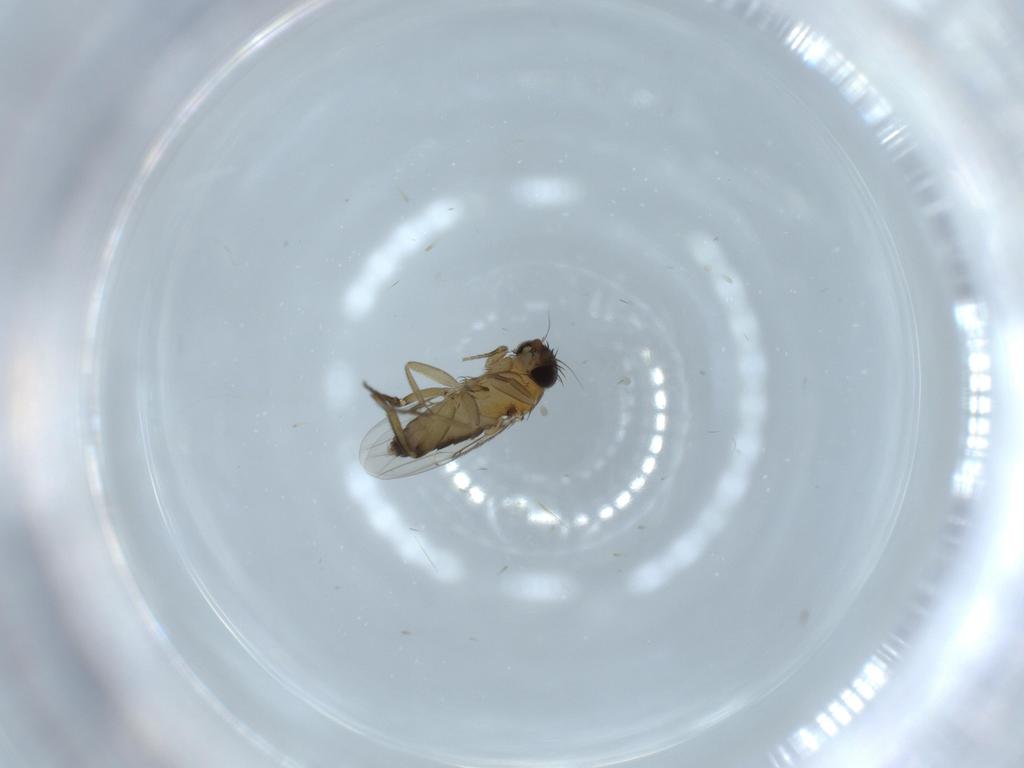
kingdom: Animalia
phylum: Arthropoda
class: Insecta
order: Diptera
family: Phoridae
